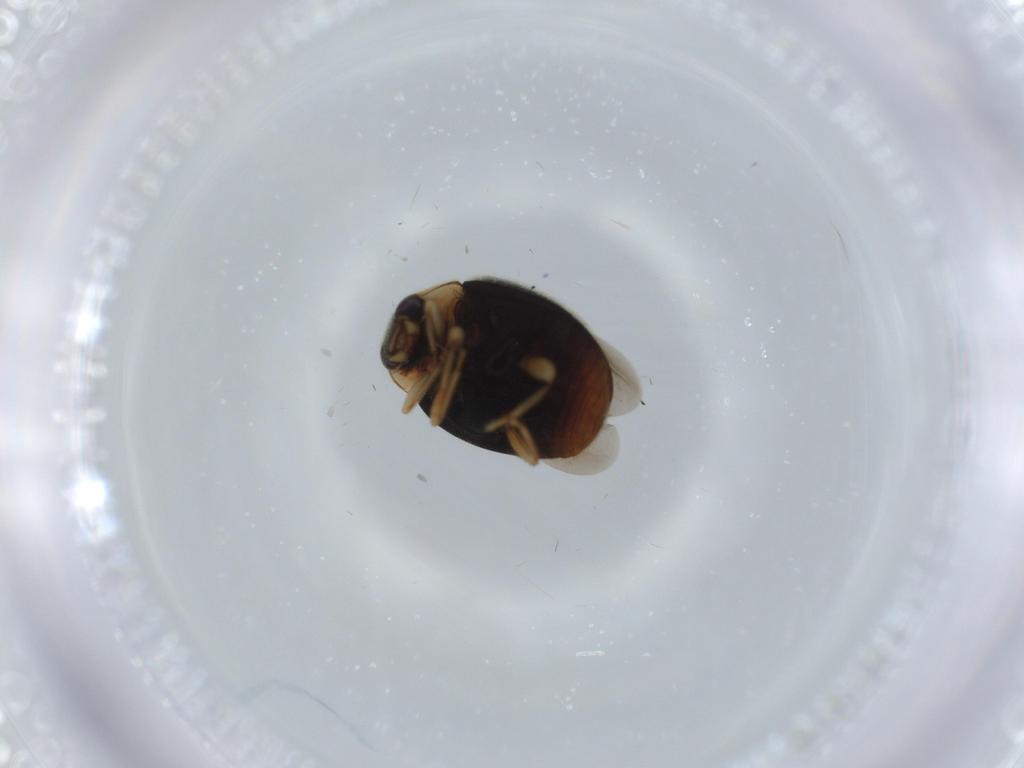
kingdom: Animalia
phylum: Arthropoda
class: Insecta
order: Coleoptera
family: Aderidae
